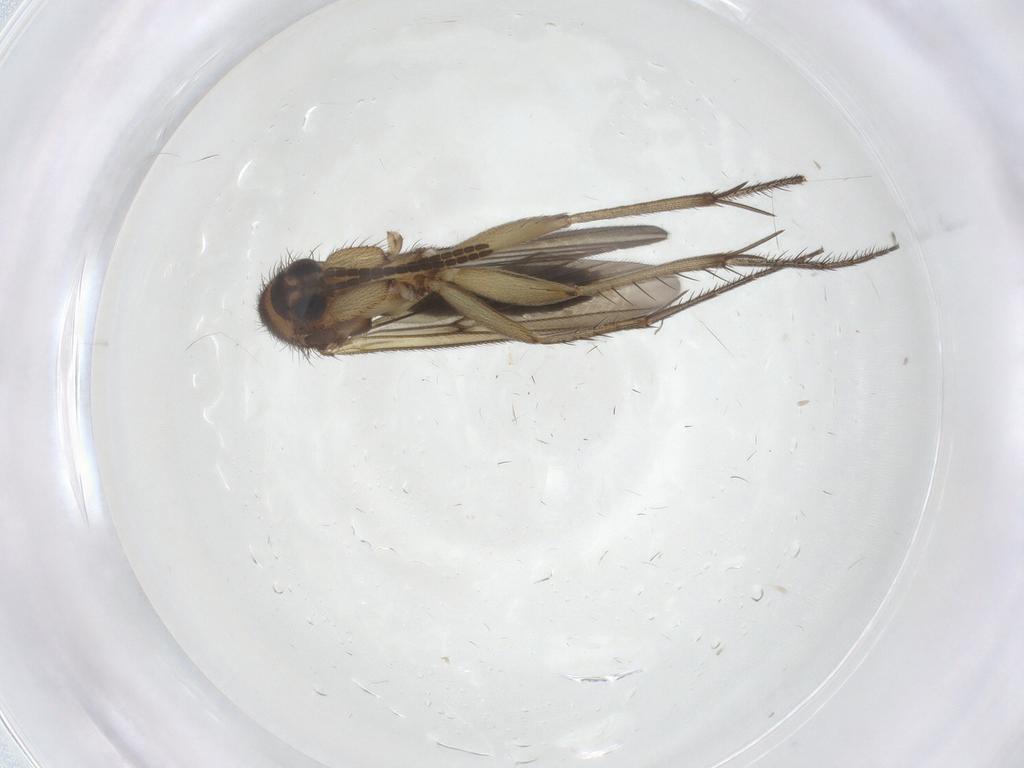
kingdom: Animalia
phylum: Arthropoda
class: Insecta
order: Diptera
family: Mycetophilidae
